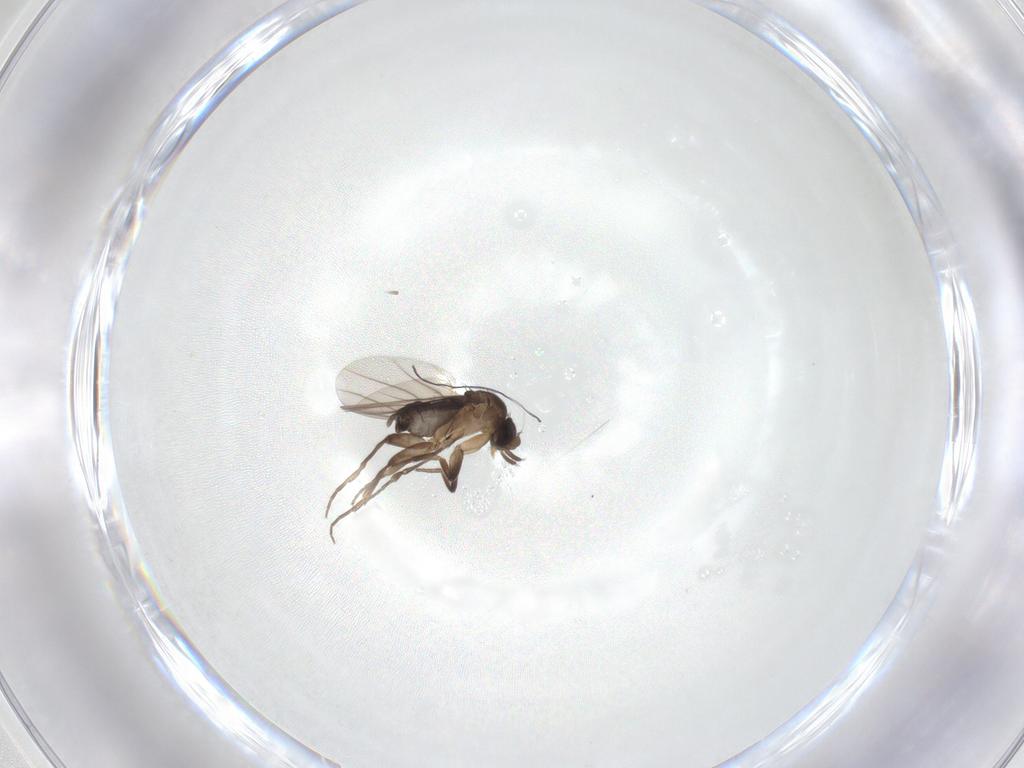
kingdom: Animalia
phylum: Arthropoda
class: Insecta
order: Diptera
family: Phoridae
